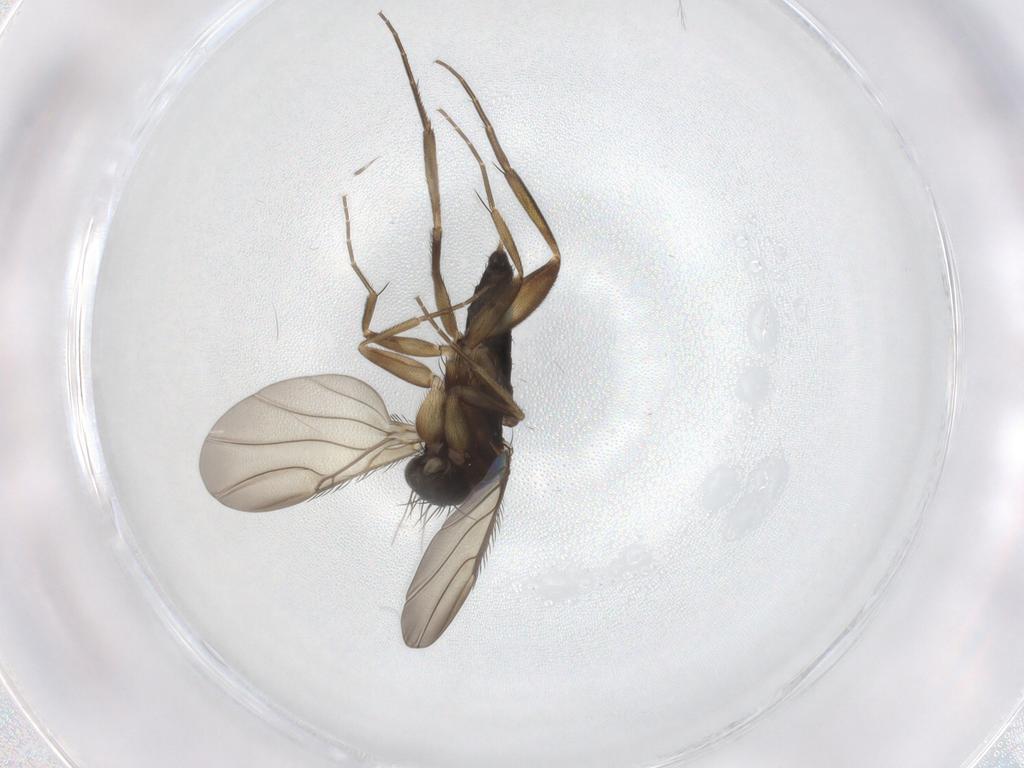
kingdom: Animalia
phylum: Arthropoda
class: Insecta
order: Diptera
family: Phoridae
